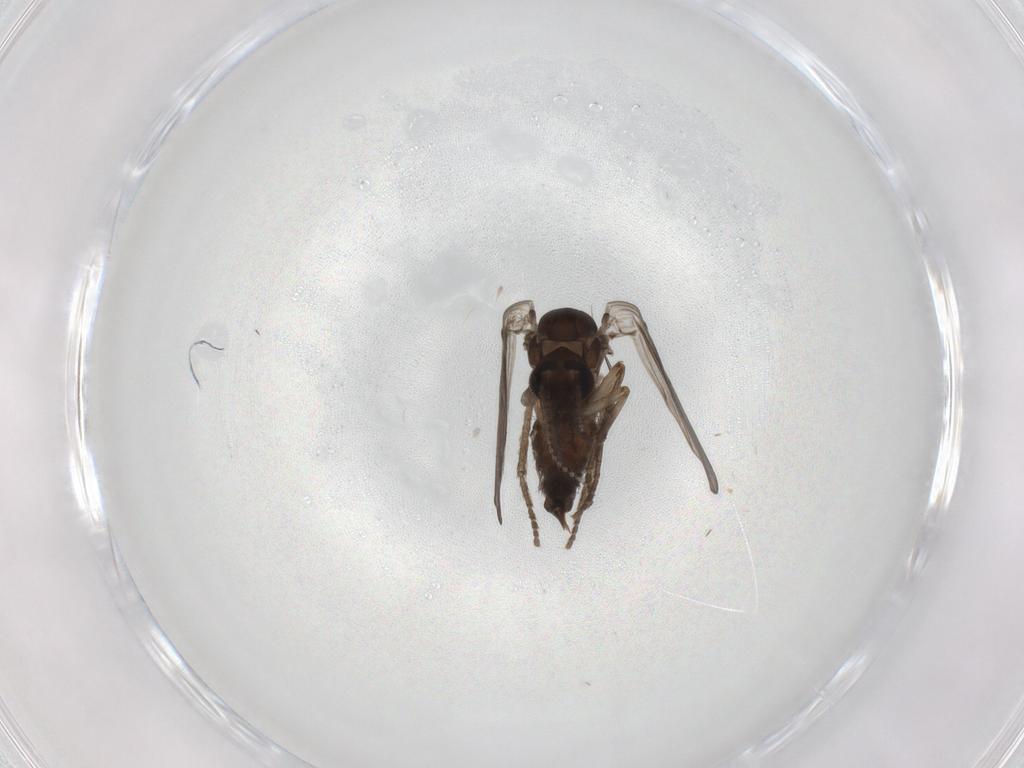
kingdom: Animalia
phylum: Arthropoda
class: Insecta
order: Diptera
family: Psychodidae
